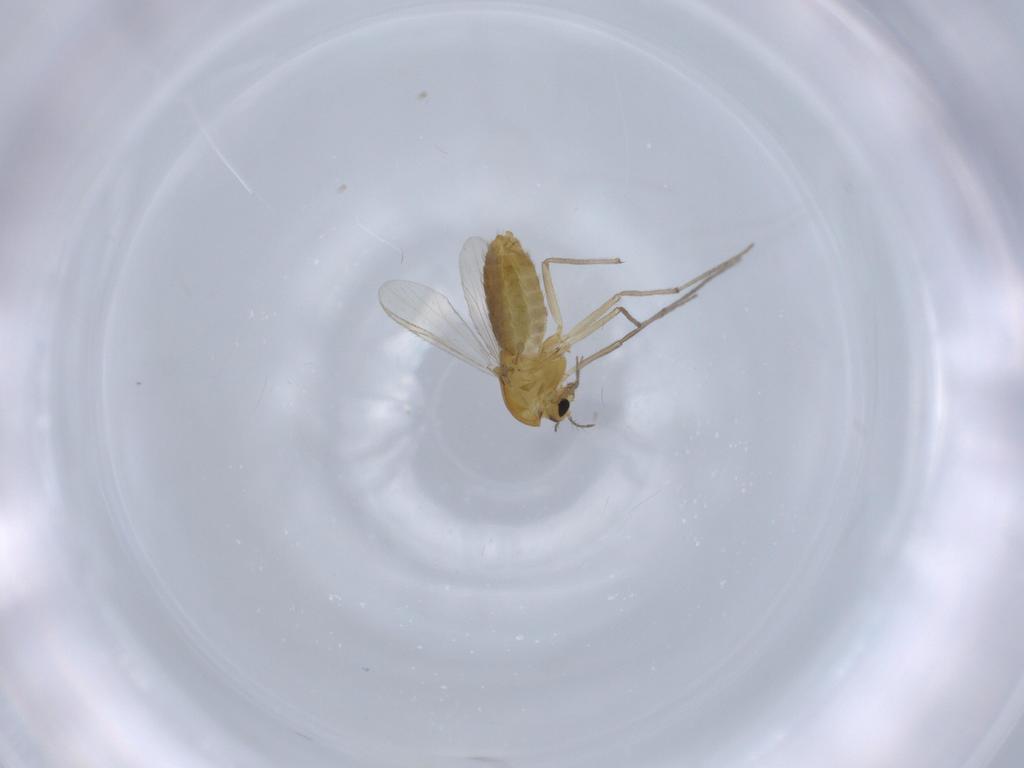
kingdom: Animalia
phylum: Arthropoda
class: Insecta
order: Diptera
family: Chironomidae
